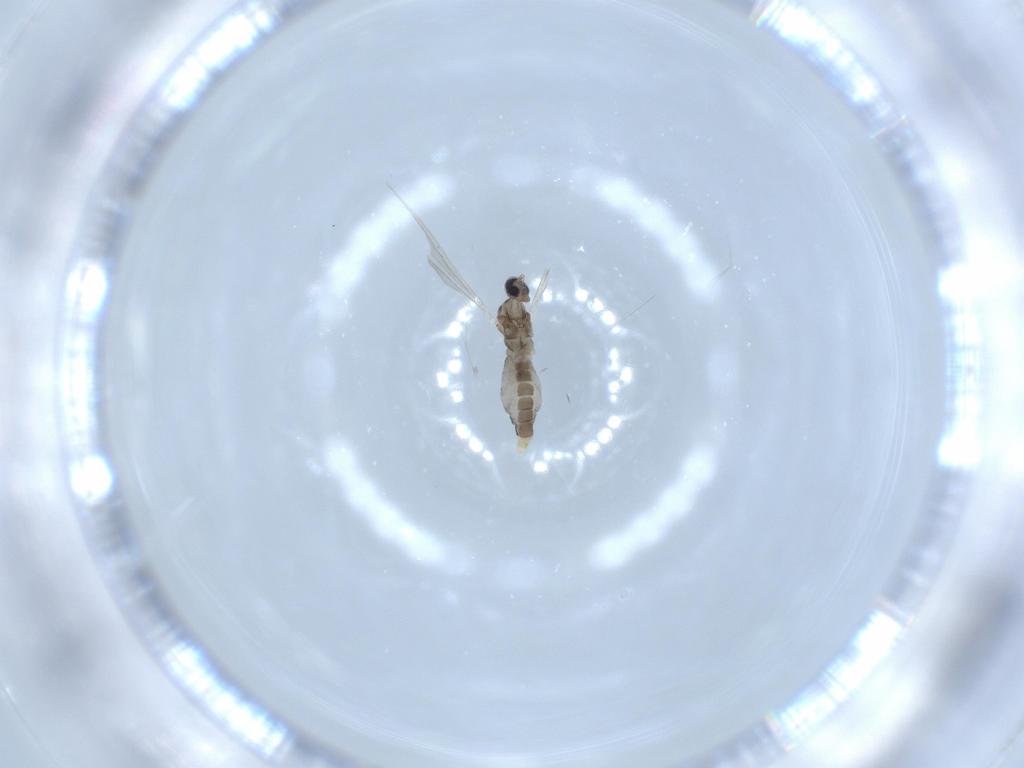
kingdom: Animalia
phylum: Arthropoda
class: Insecta
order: Diptera
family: Cecidomyiidae
